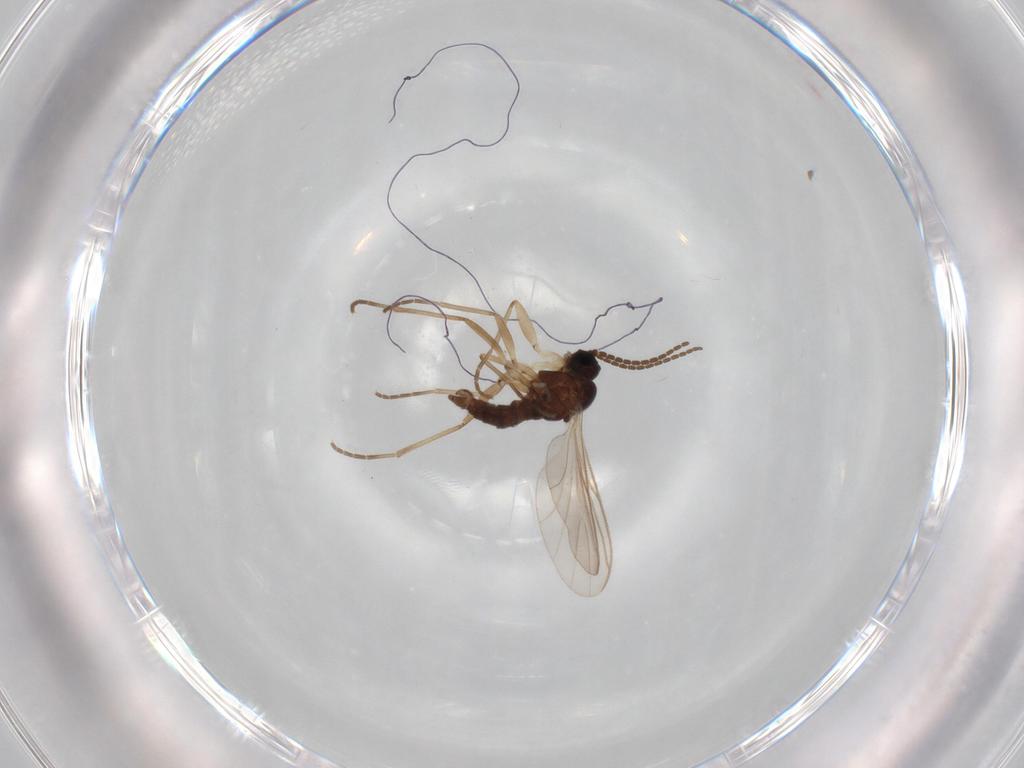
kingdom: Animalia
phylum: Arthropoda
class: Insecta
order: Diptera
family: Sciaridae
